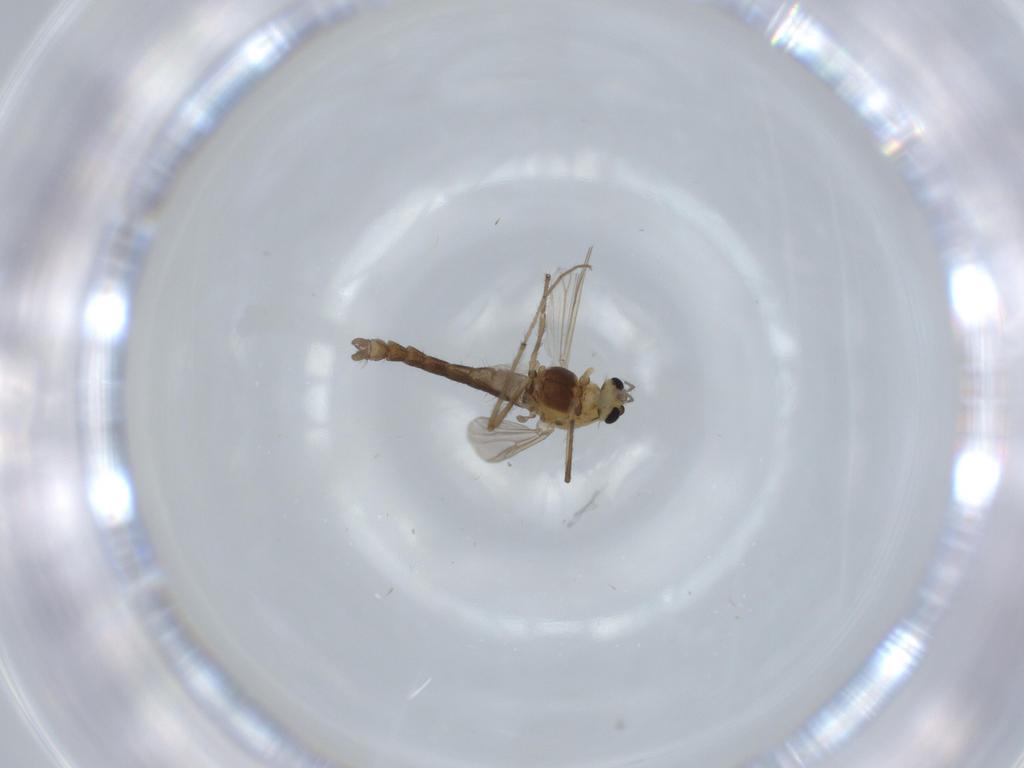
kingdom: Animalia
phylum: Arthropoda
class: Insecta
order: Diptera
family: Chironomidae
